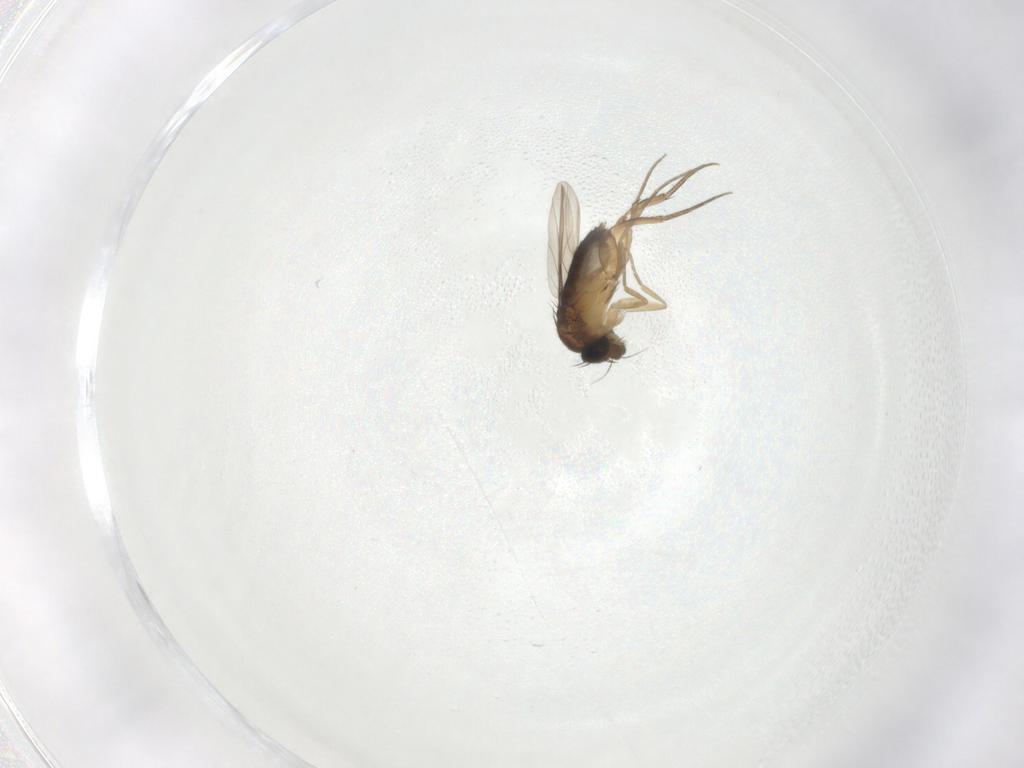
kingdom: Animalia
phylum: Arthropoda
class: Insecta
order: Diptera
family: Phoridae
